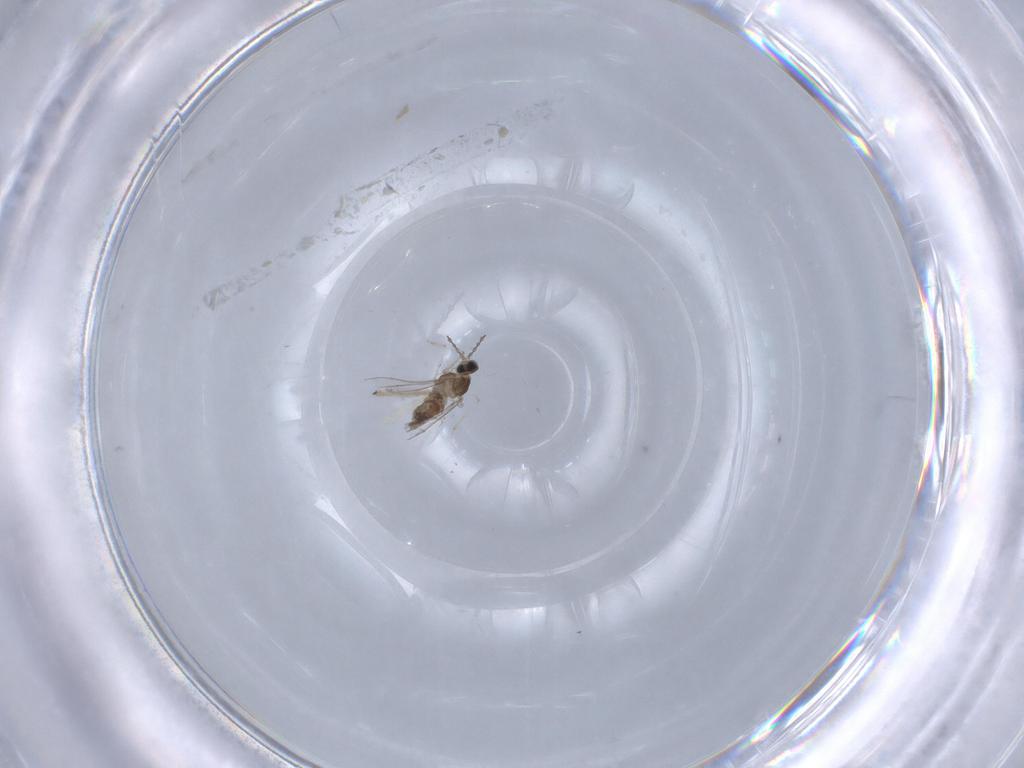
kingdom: Animalia
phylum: Arthropoda
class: Insecta
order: Diptera
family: Cecidomyiidae
